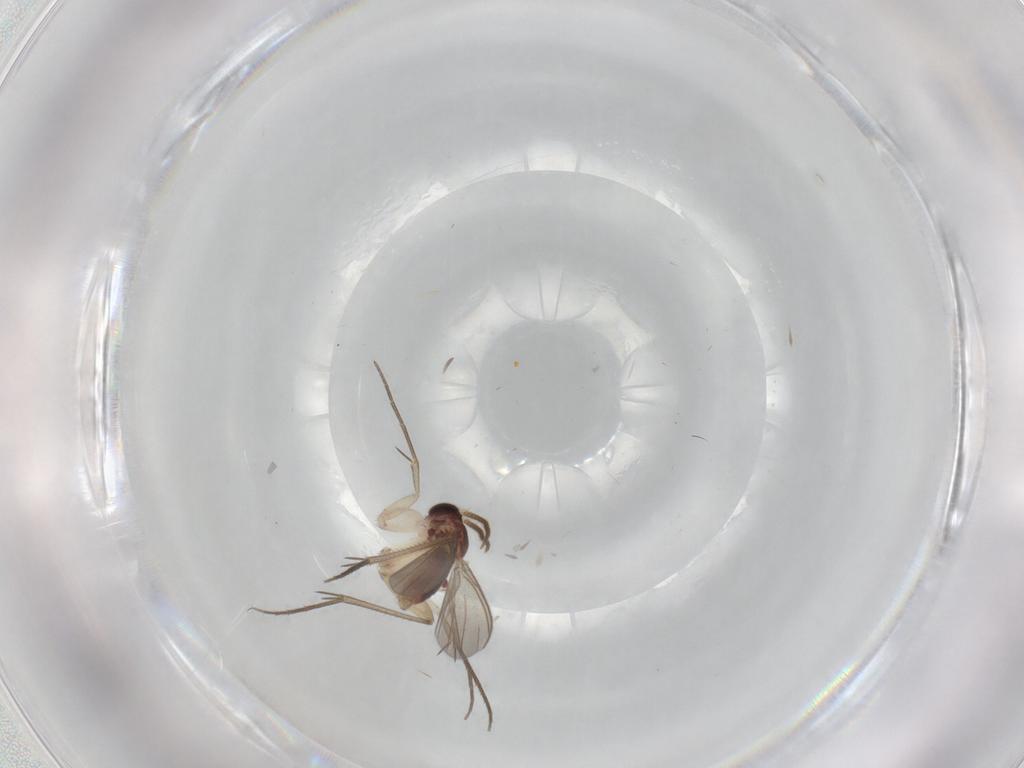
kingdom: Animalia
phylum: Arthropoda
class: Insecta
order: Diptera
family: Mycetophilidae
